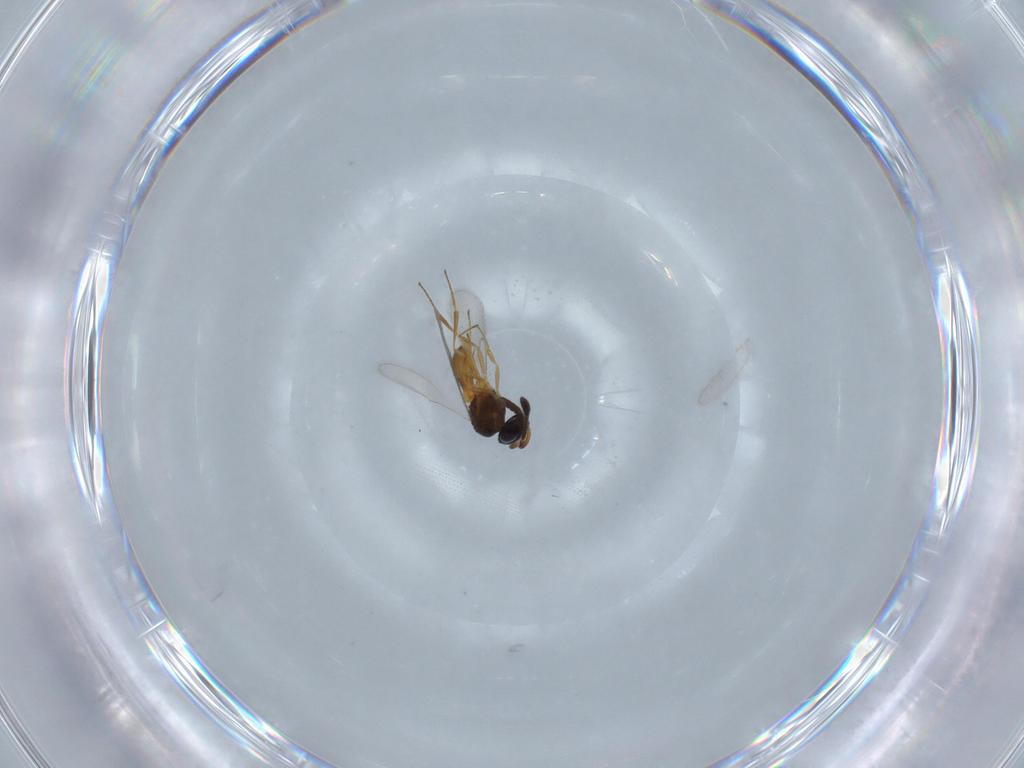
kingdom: Animalia
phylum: Arthropoda
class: Insecta
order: Hymenoptera
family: Scelionidae
